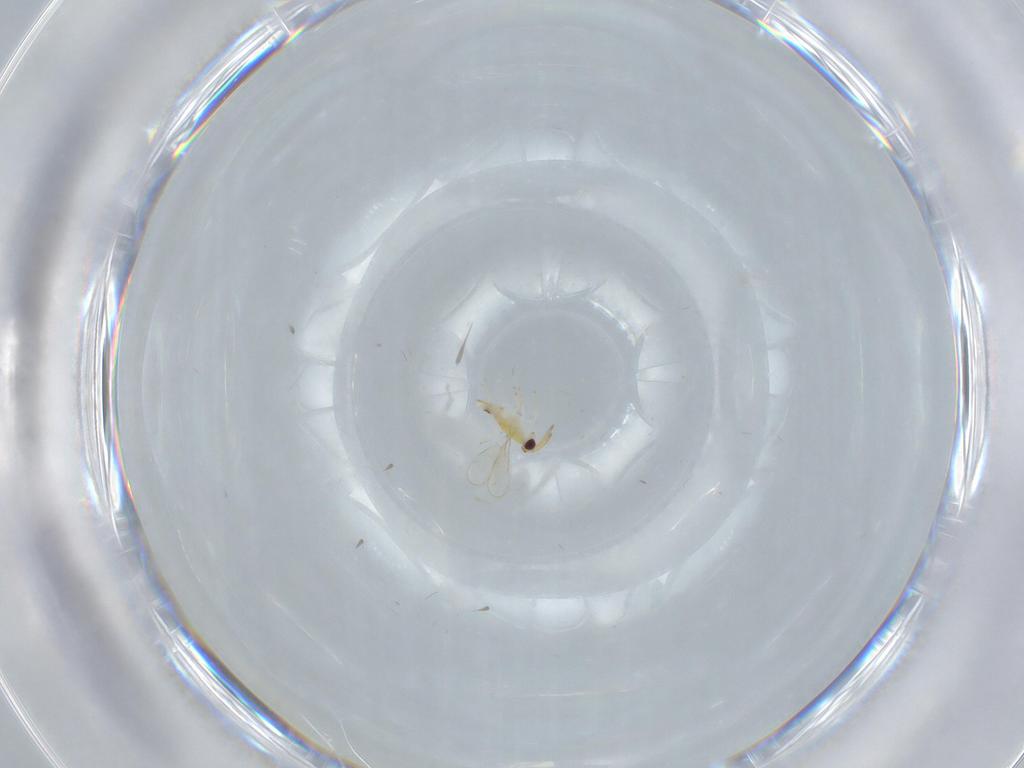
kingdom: Animalia
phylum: Arthropoda
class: Insecta
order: Hymenoptera
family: Aphelinidae
